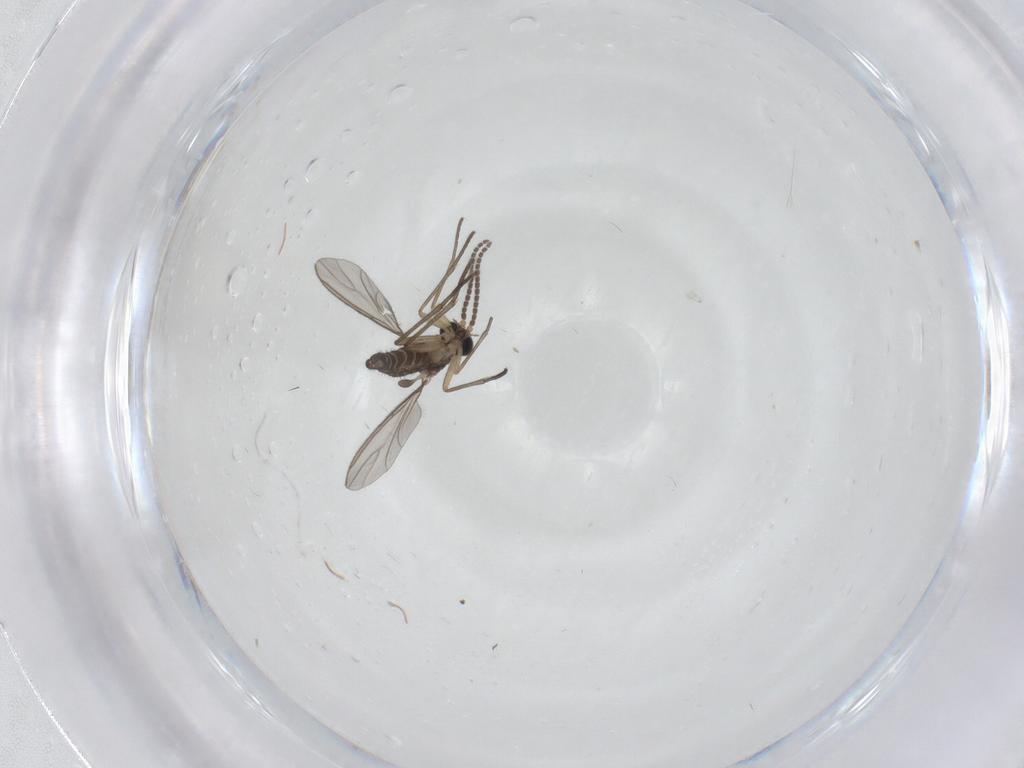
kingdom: Animalia
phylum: Arthropoda
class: Insecta
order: Diptera
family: Sciaridae
